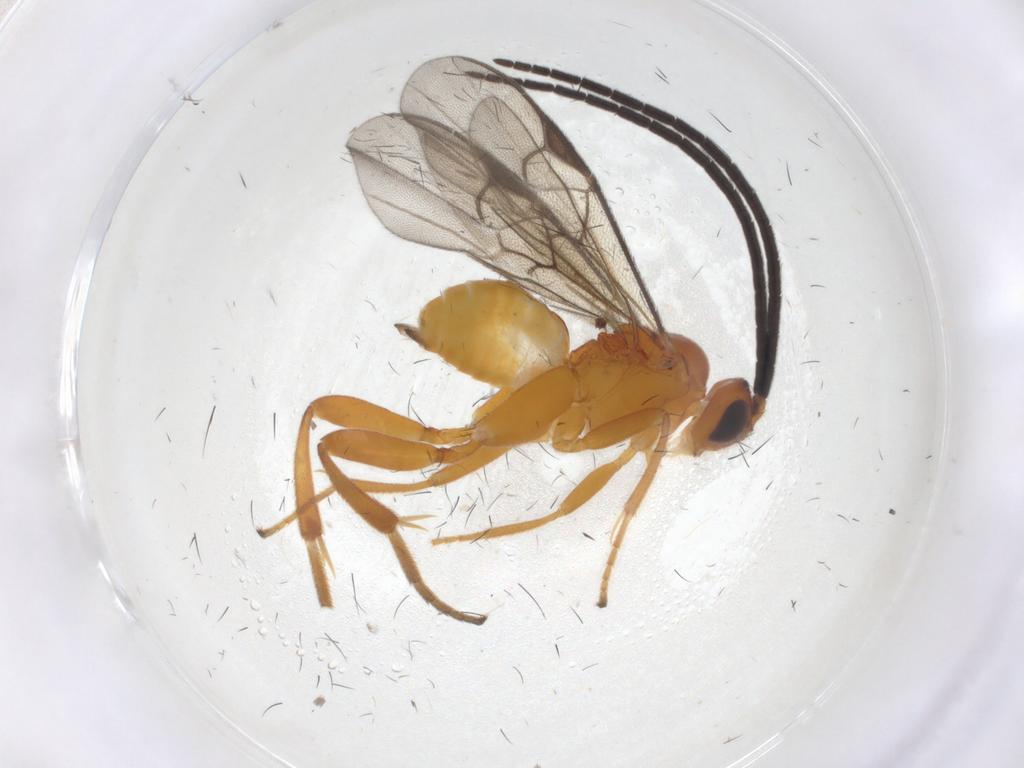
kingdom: Animalia
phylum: Arthropoda
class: Insecta
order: Hymenoptera
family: Braconidae
